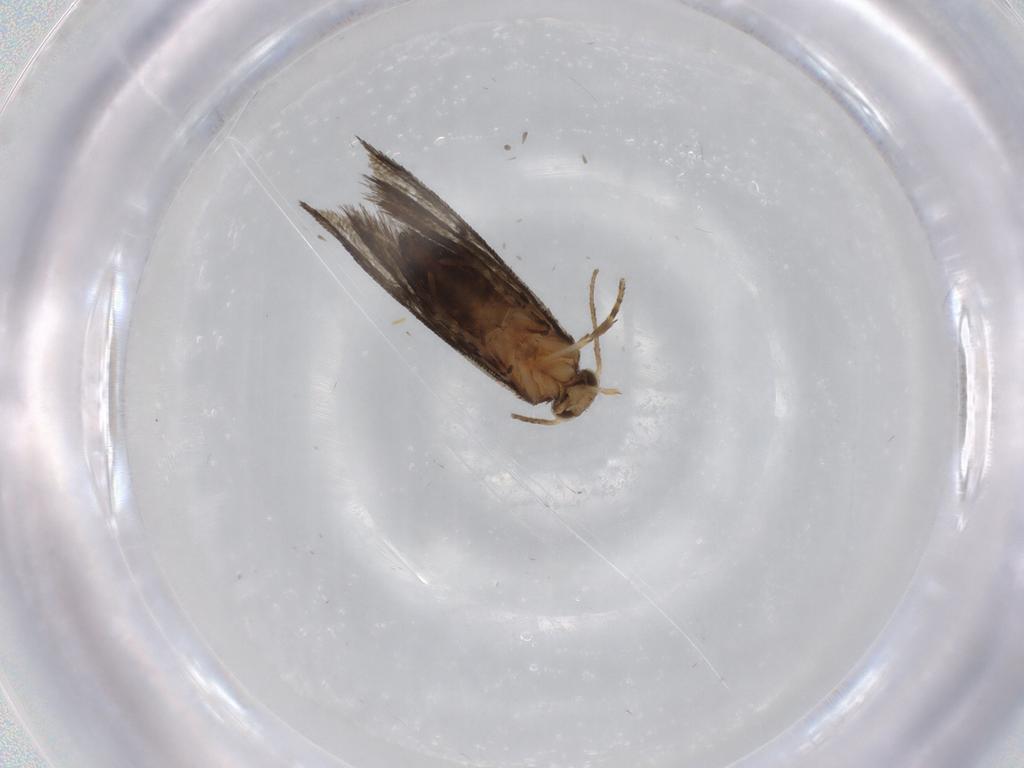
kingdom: Animalia
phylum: Arthropoda
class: Insecta
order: Lepidoptera
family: Crambidae
